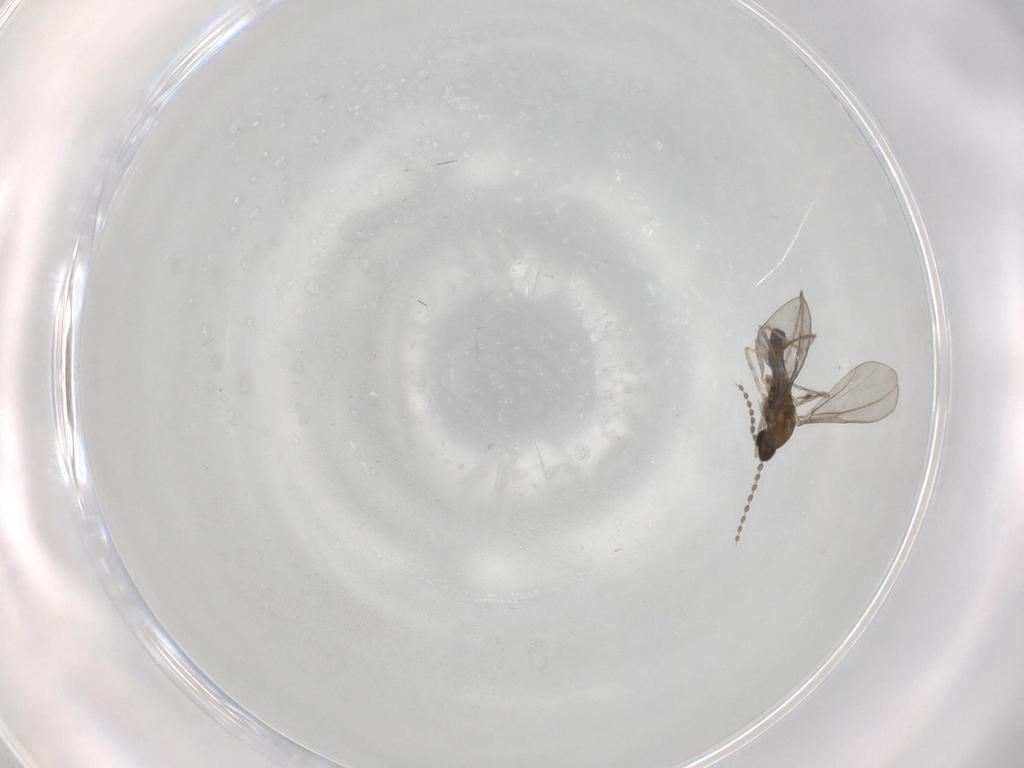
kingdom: Animalia
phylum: Arthropoda
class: Insecta
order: Diptera
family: Cecidomyiidae
